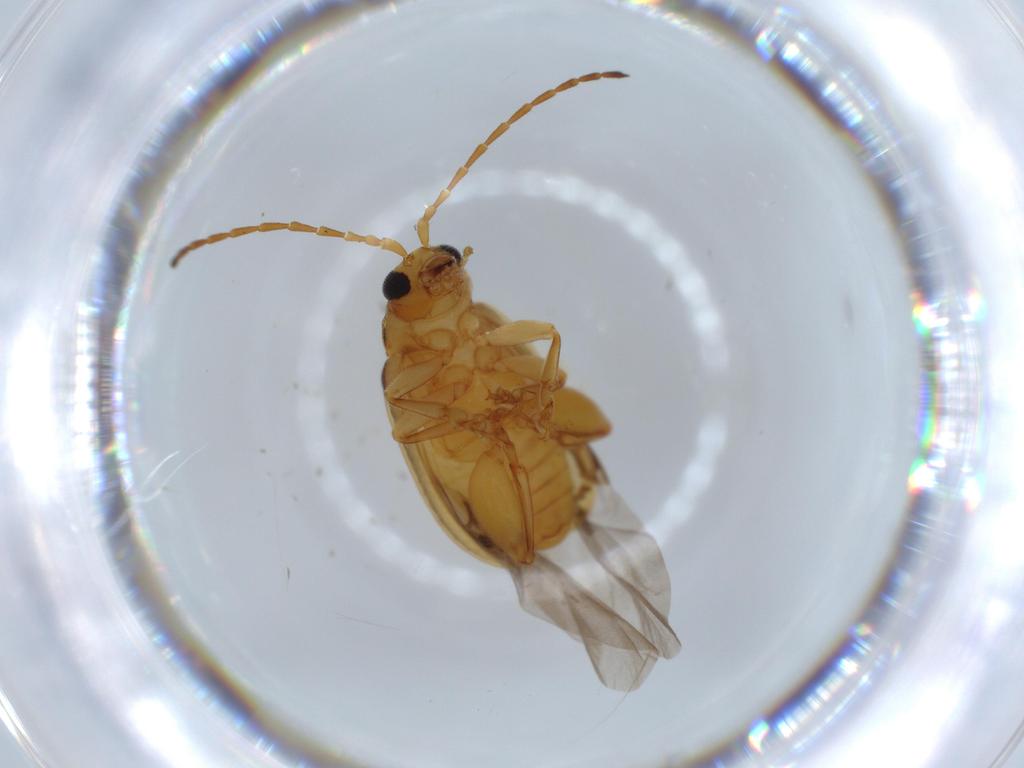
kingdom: Animalia
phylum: Arthropoda
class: Insecta
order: Coleoptera
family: Chrysomelidae
